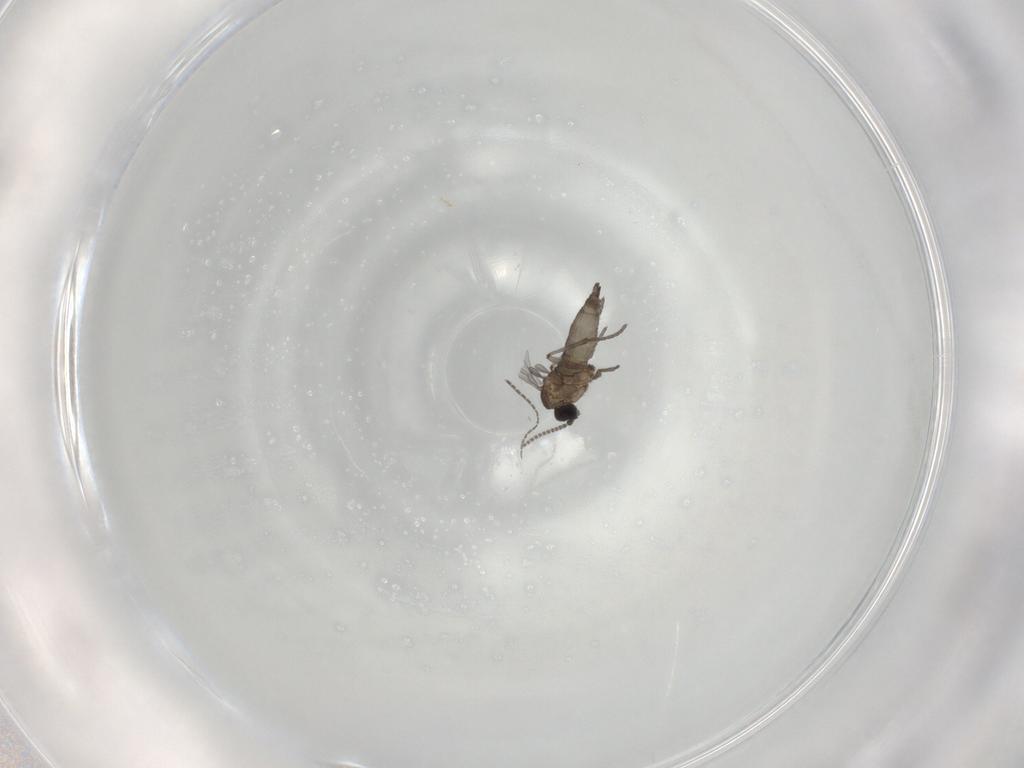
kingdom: Animalia
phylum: Arthropoda
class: Insecta
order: Diptera
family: Sciaridae
